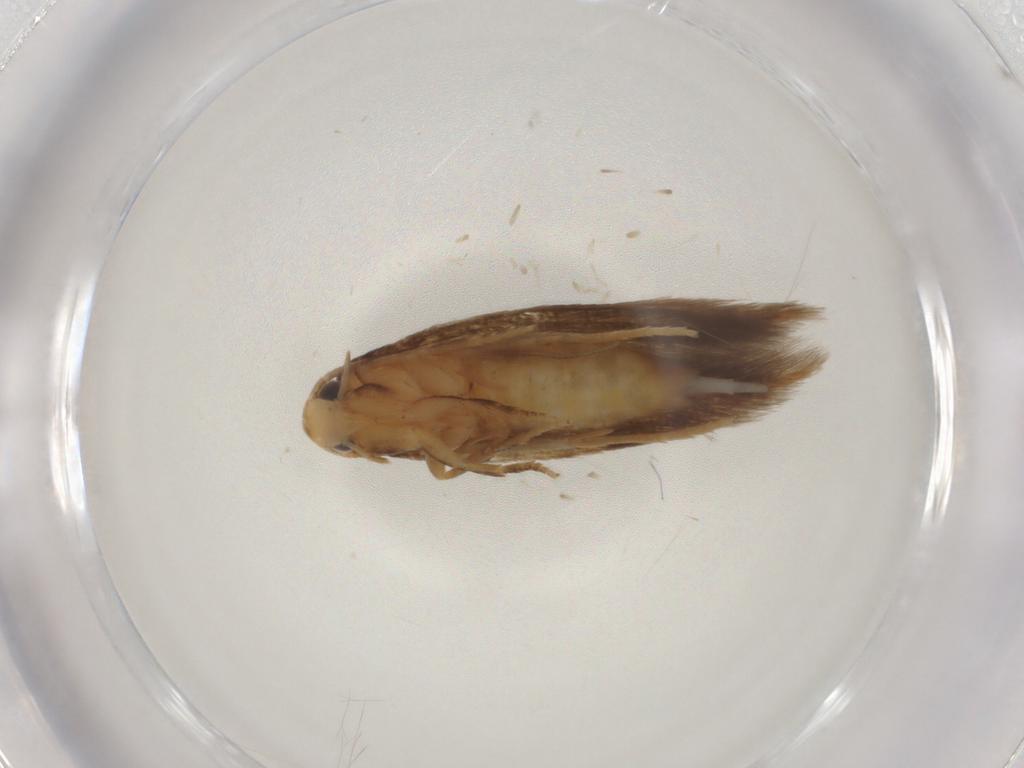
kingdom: Animalia
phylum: Arthropoda
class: Insecta
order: Lepidoptera
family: Tineidae
